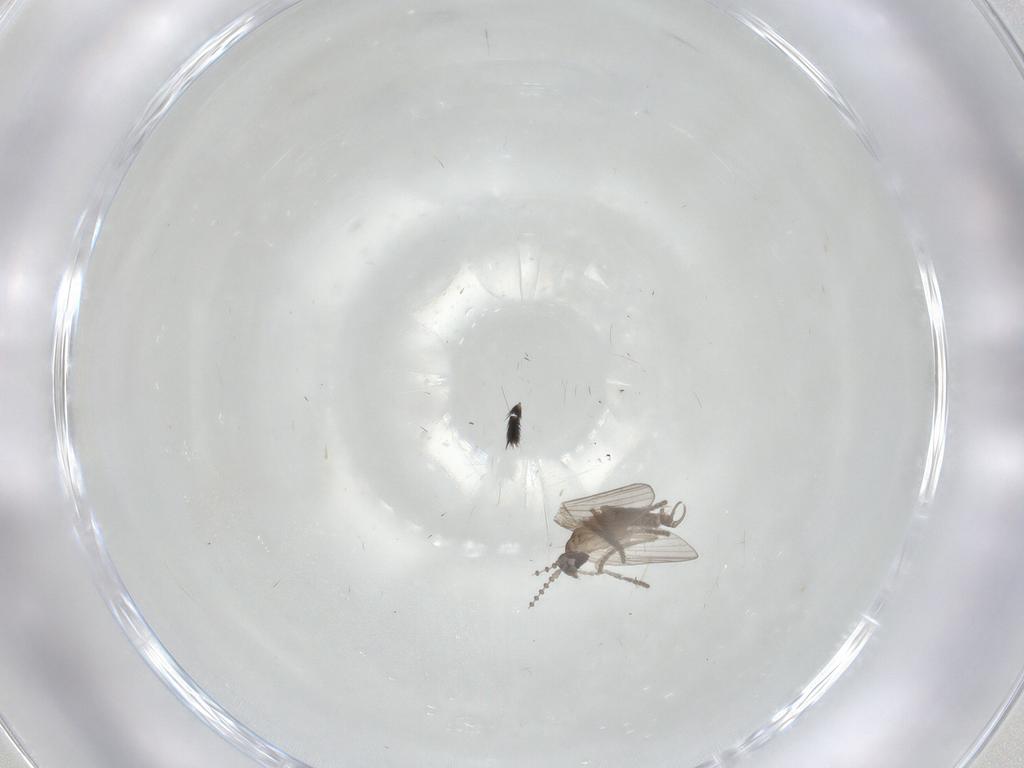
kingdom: Animalia
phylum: Arthropoda
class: Insecta
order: Diptera
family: Psychodidae
